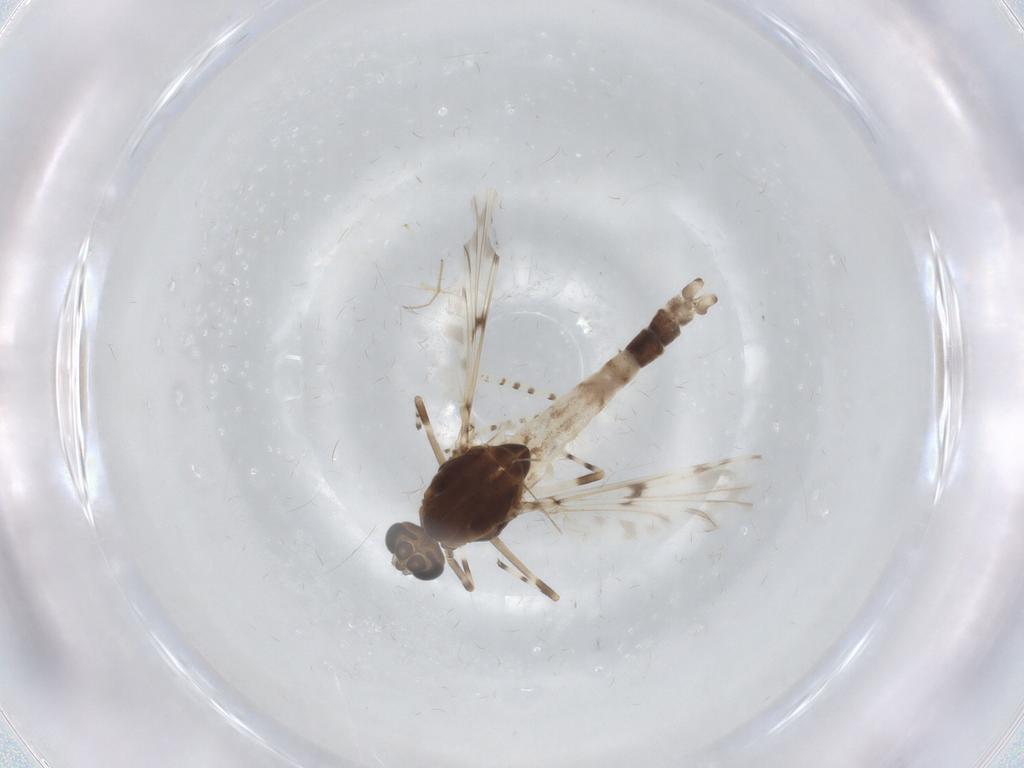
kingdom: Animalia
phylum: Arthropoda
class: Insecta
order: Diptera
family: Chironomidae
